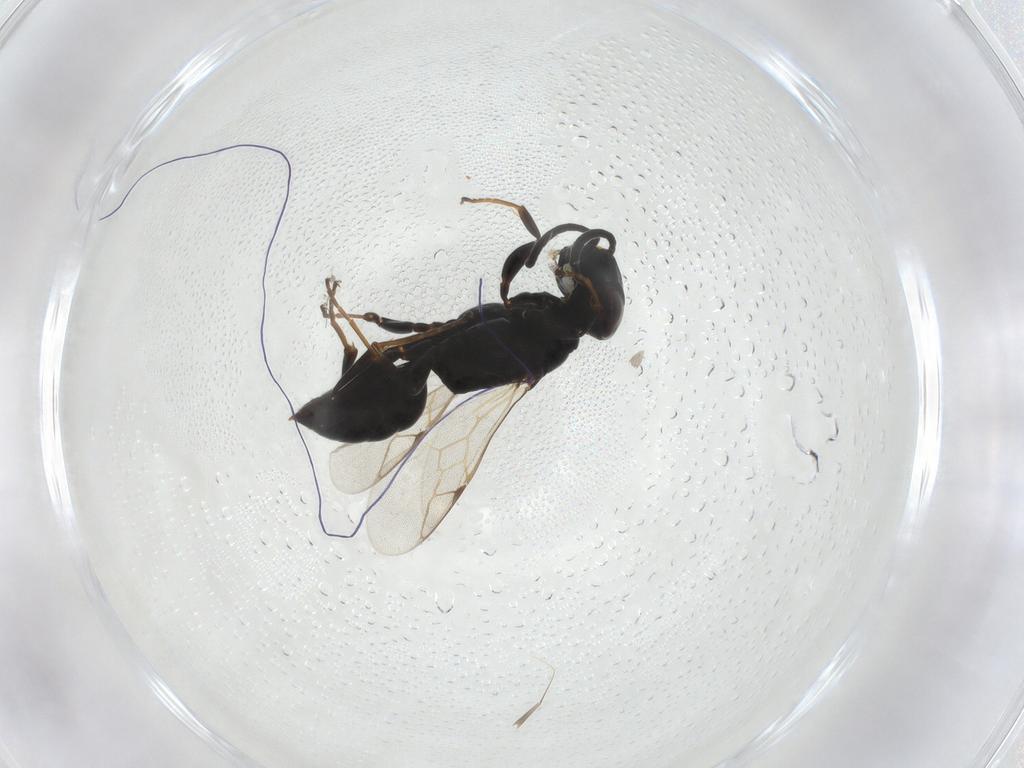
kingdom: Animalia
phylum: Arthropoda
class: Insecta
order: Hymenoptera
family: Crabronidae
